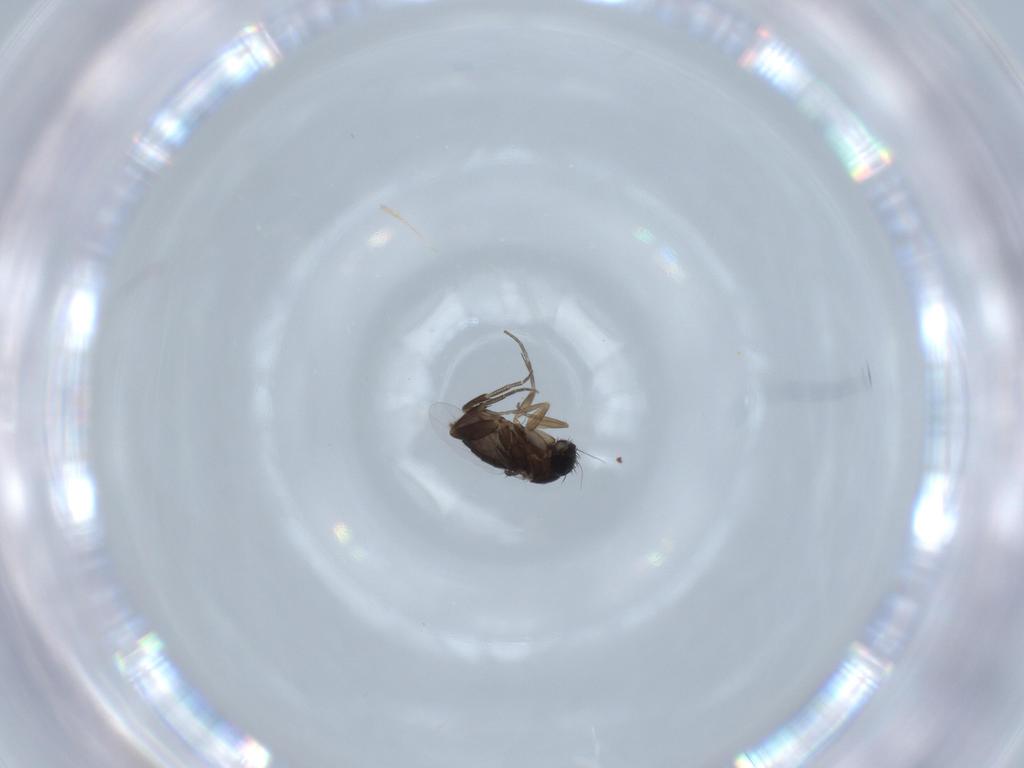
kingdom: Animalia
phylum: Arthropoda
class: Insecta
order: Diptera
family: Phoridae
